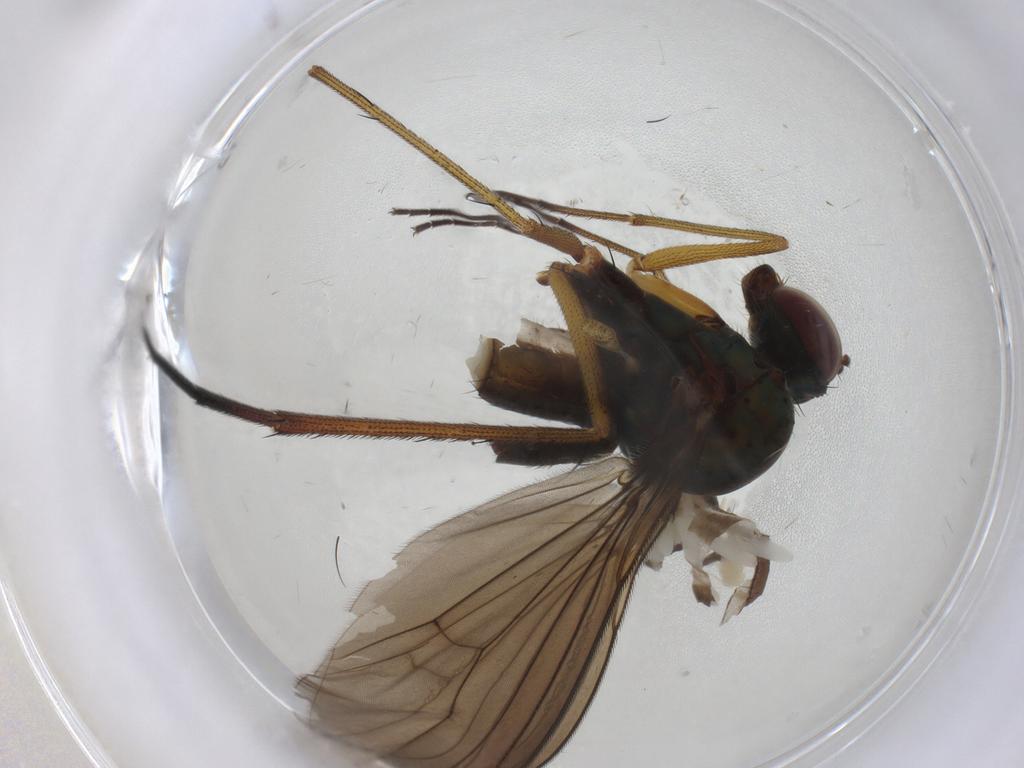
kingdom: Animalia
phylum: Arthropoda
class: Insecta
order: Diptera
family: Dolichopodidae
